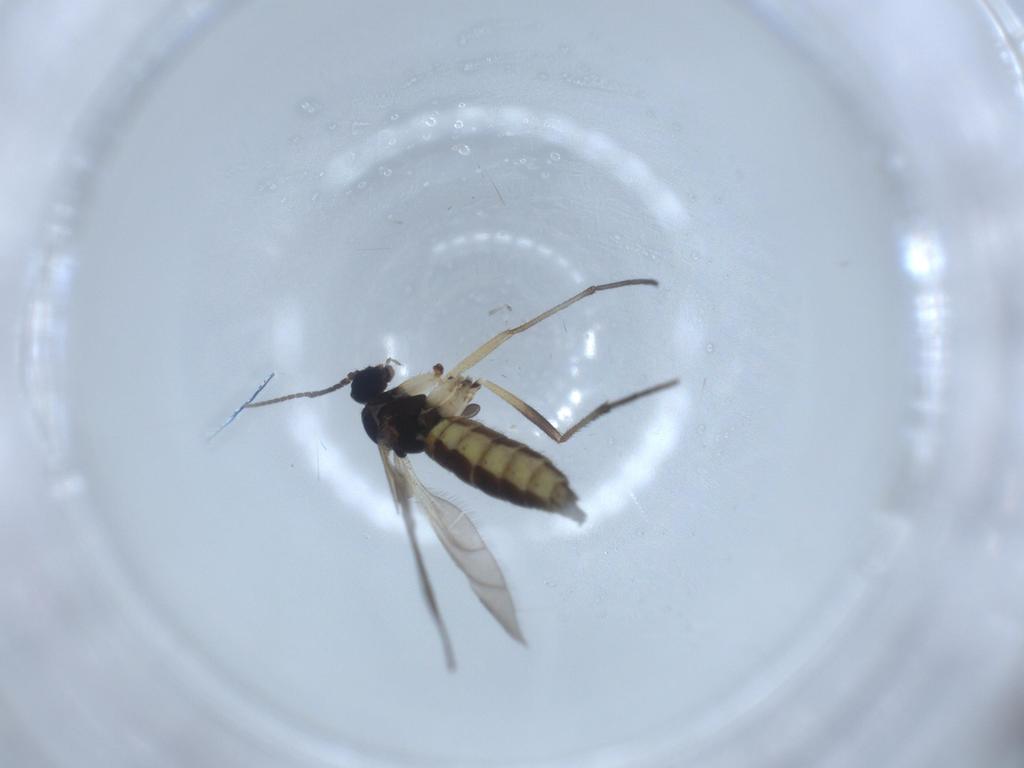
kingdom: Animalia
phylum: Arthropoda
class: Insecta
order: Diptera
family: Sciaridae
